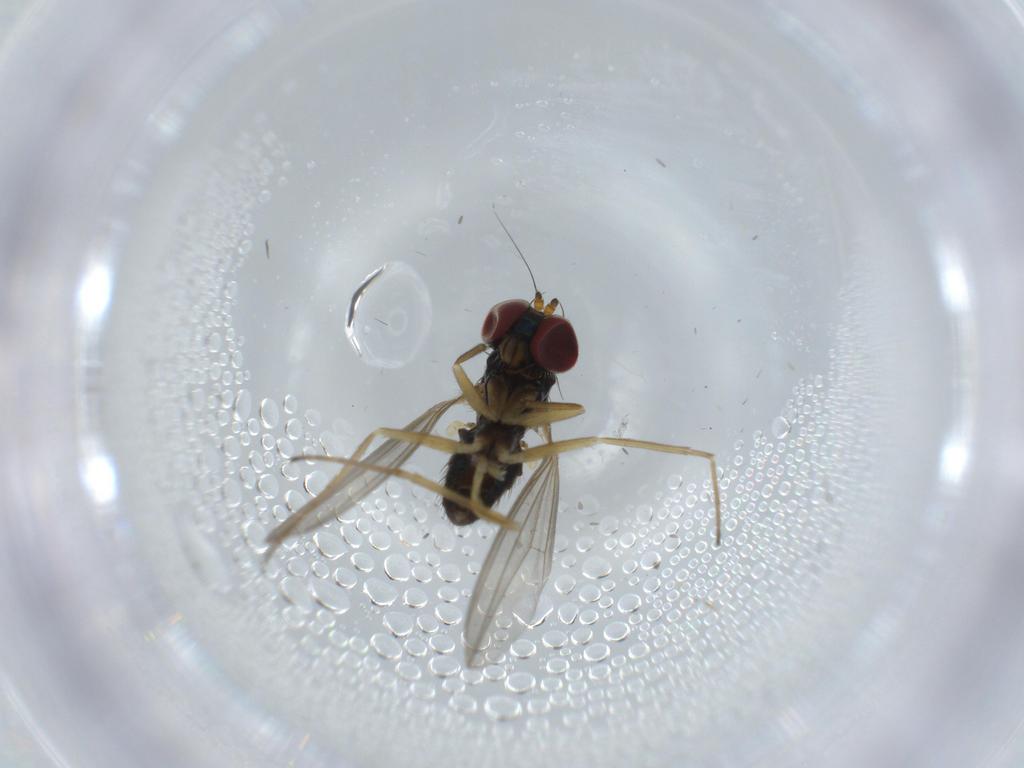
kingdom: Animalia
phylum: Arthropoda
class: Insecta
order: Diptera
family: Dolichopodidae
